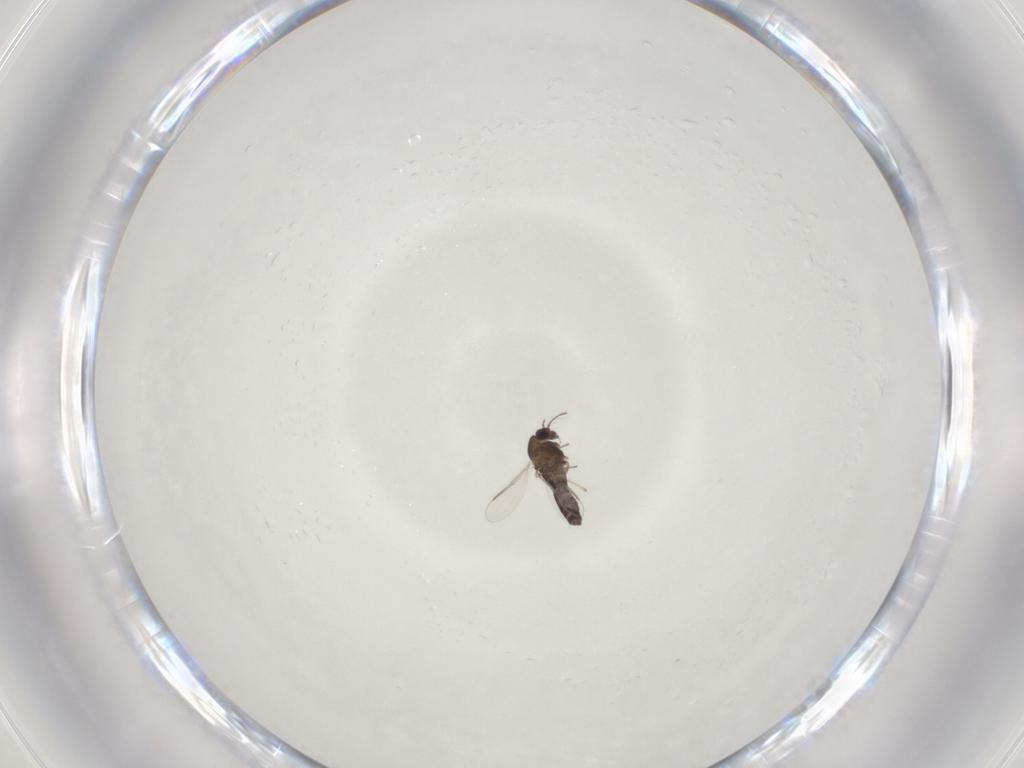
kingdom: Animalia
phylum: Arthropoda
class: Insecta
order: Diptera
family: Chironomidae
